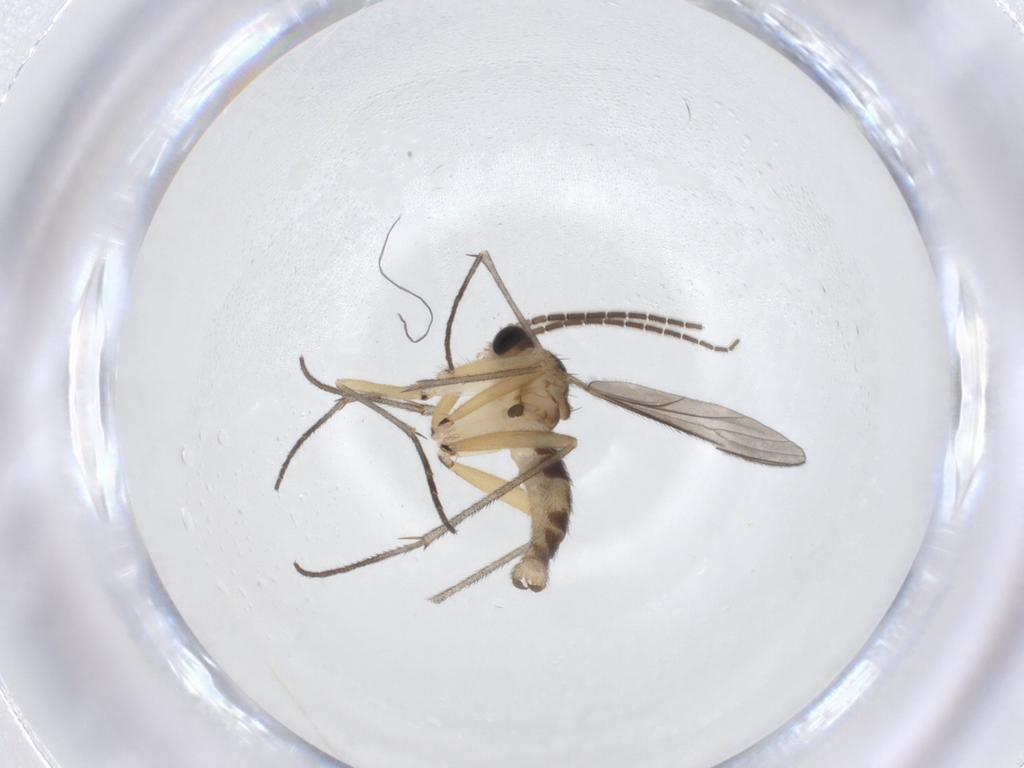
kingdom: Animalia
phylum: Arthropoda
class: Insecta
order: Diptera
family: Sciaridae
